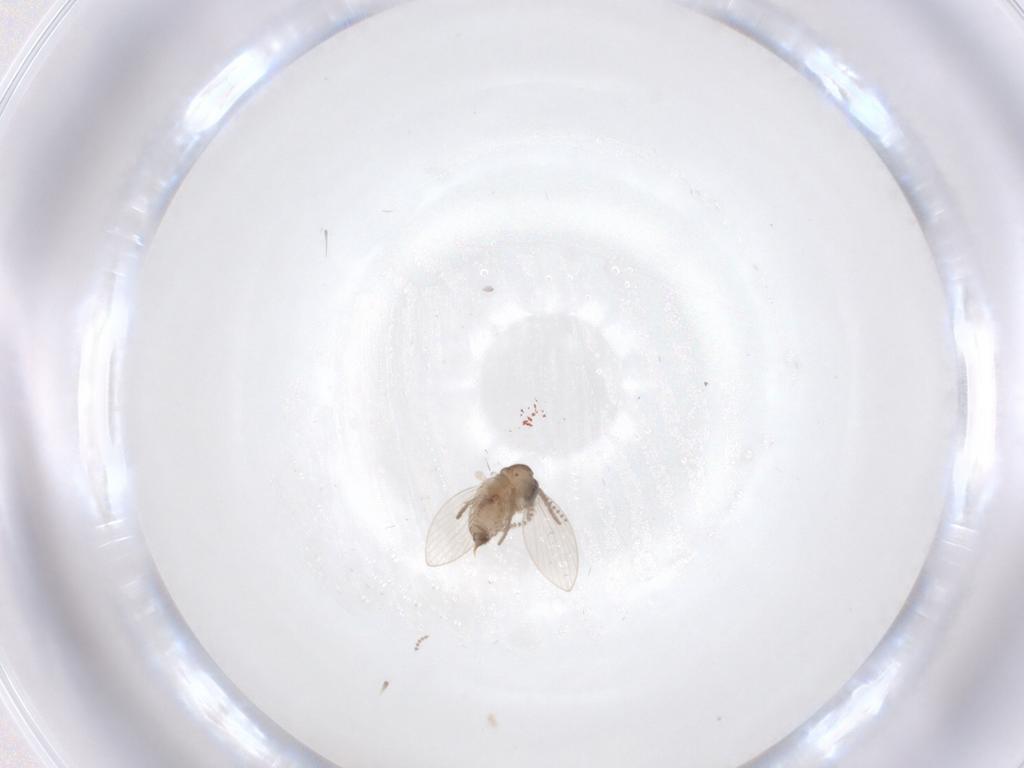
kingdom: Animalia
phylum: Arthropoda
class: Insecta
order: Diptera
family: Psychodidae
